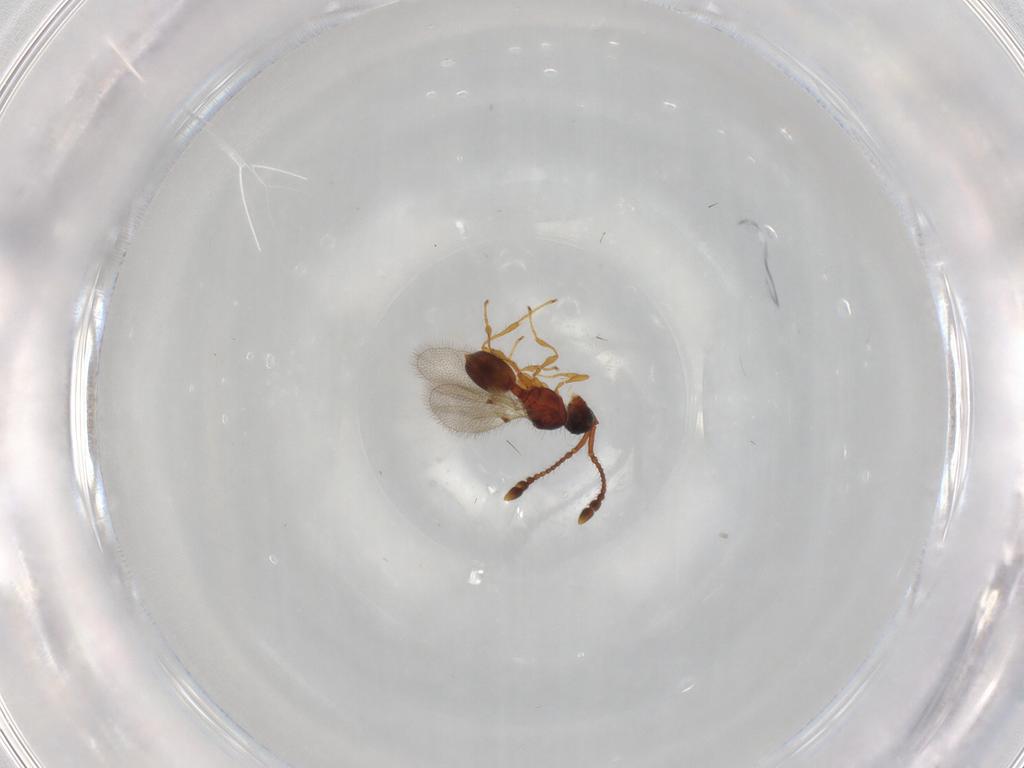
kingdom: Animalia
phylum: Arthropoda
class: Insecta
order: Hymenoptera
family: Diapriidae
